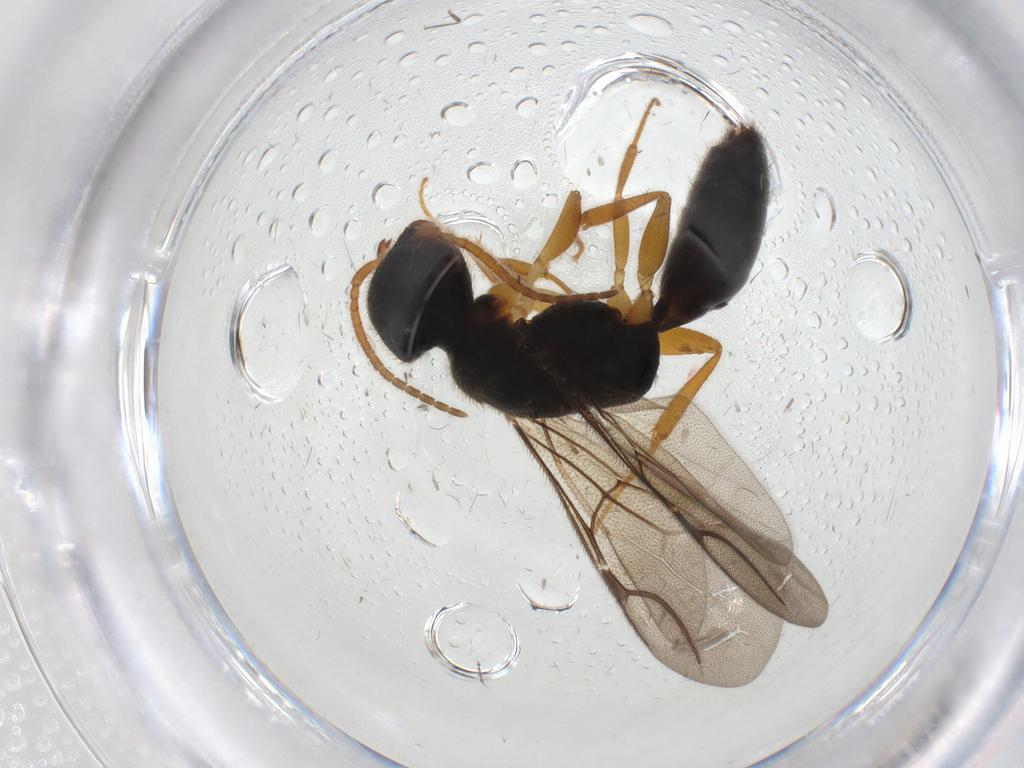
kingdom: Animalia
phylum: Arthropoda
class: Insecta
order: Hymenoptera
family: Bethylidae
